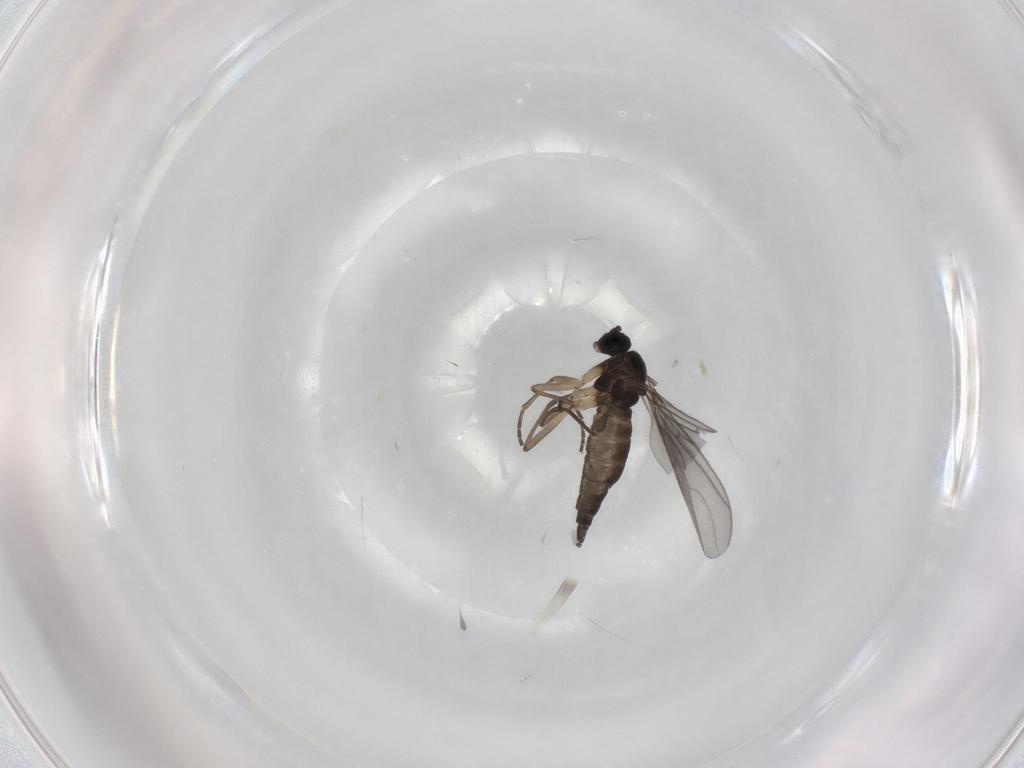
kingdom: Animalia
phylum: Arthropoda
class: Insecta
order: Diptera
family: Sciaridae
